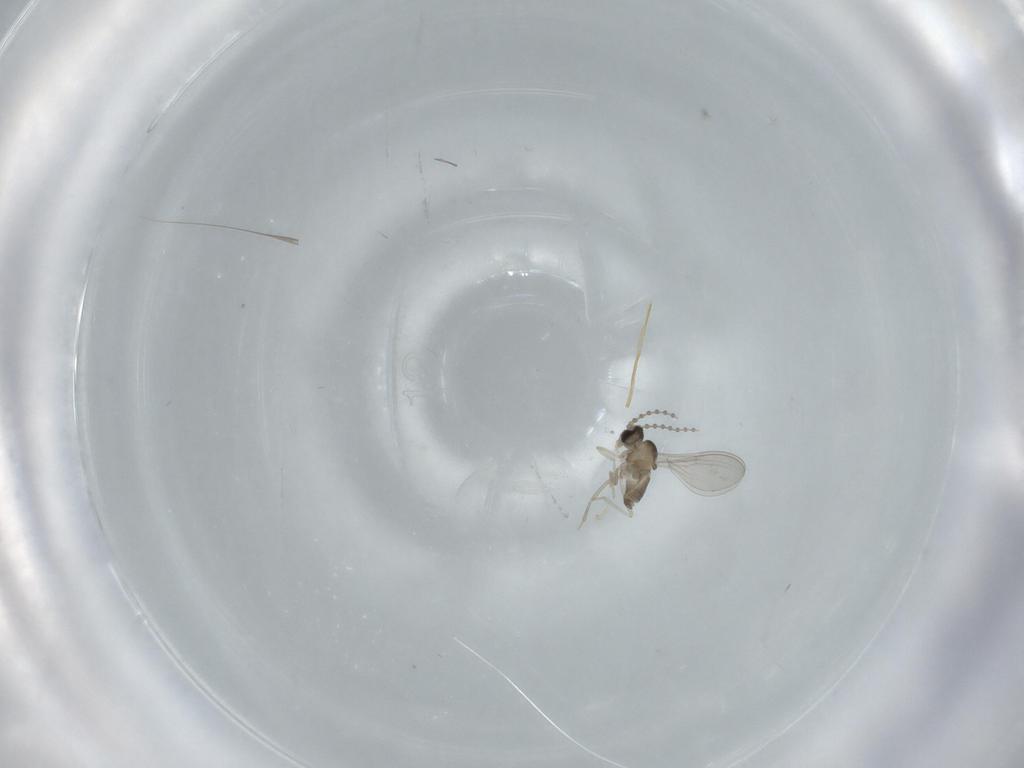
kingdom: Animalia
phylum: Arthropoda
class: Insecta
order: Diptera
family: Cecidomyiidae
